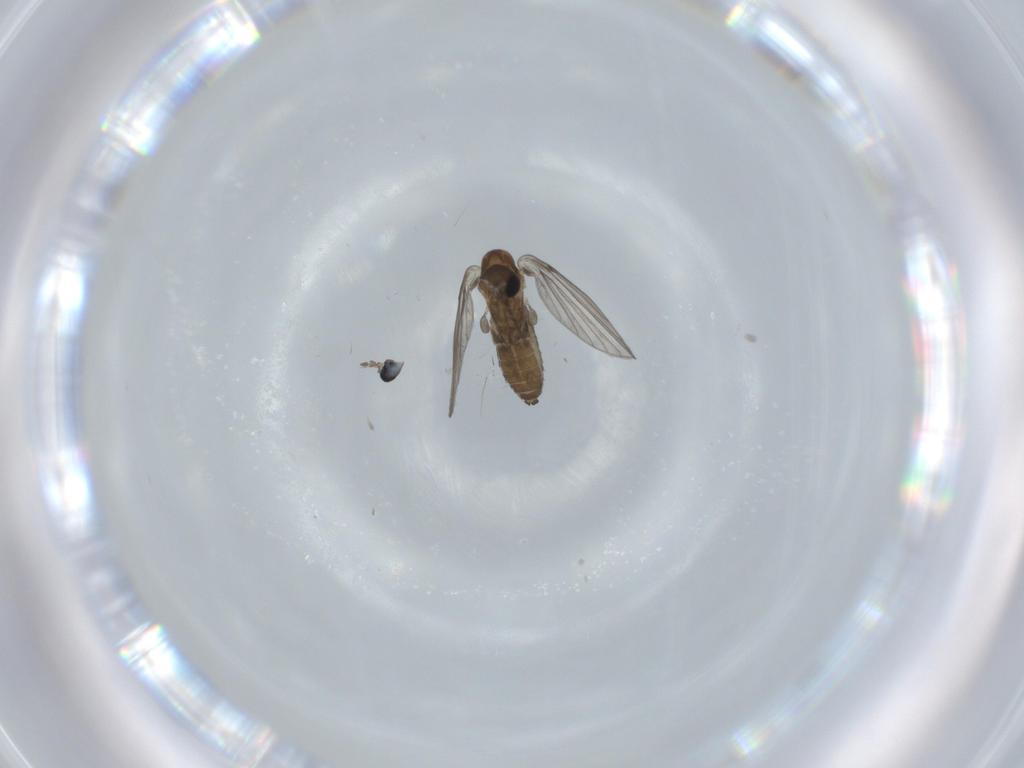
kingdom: Animalia
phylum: Arthropoda
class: Insecta
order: Diptera
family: Psychodidae
